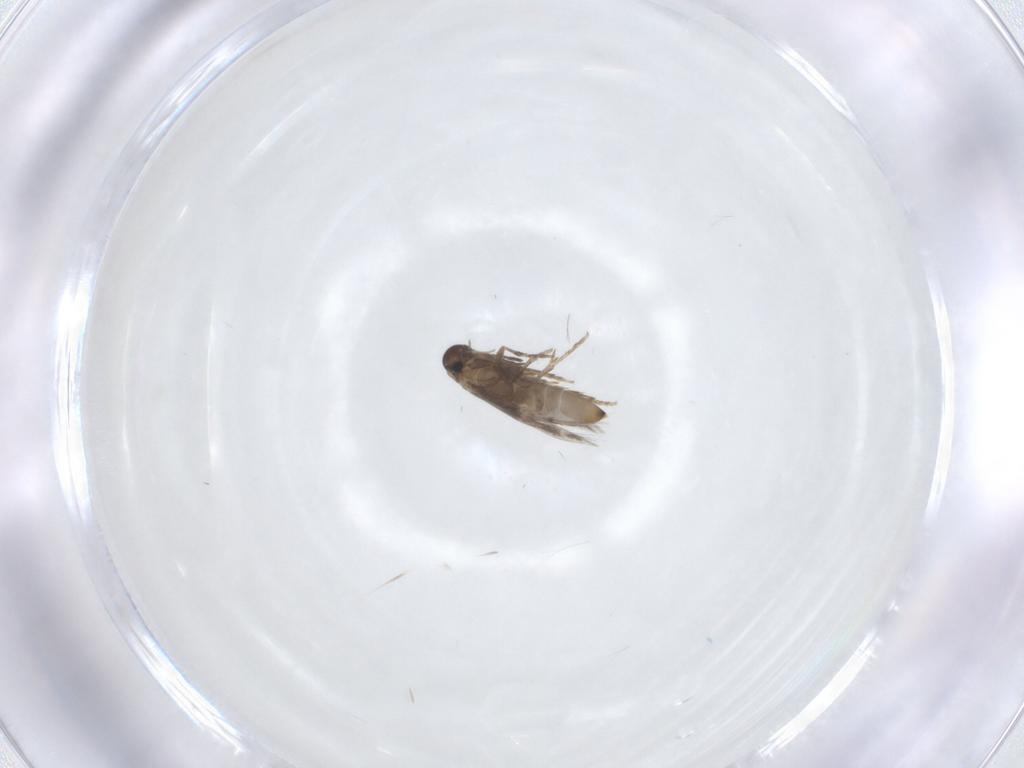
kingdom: Animalia
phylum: Arthropoda
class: Insecta
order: Lepidoptera
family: Heliozelidae
